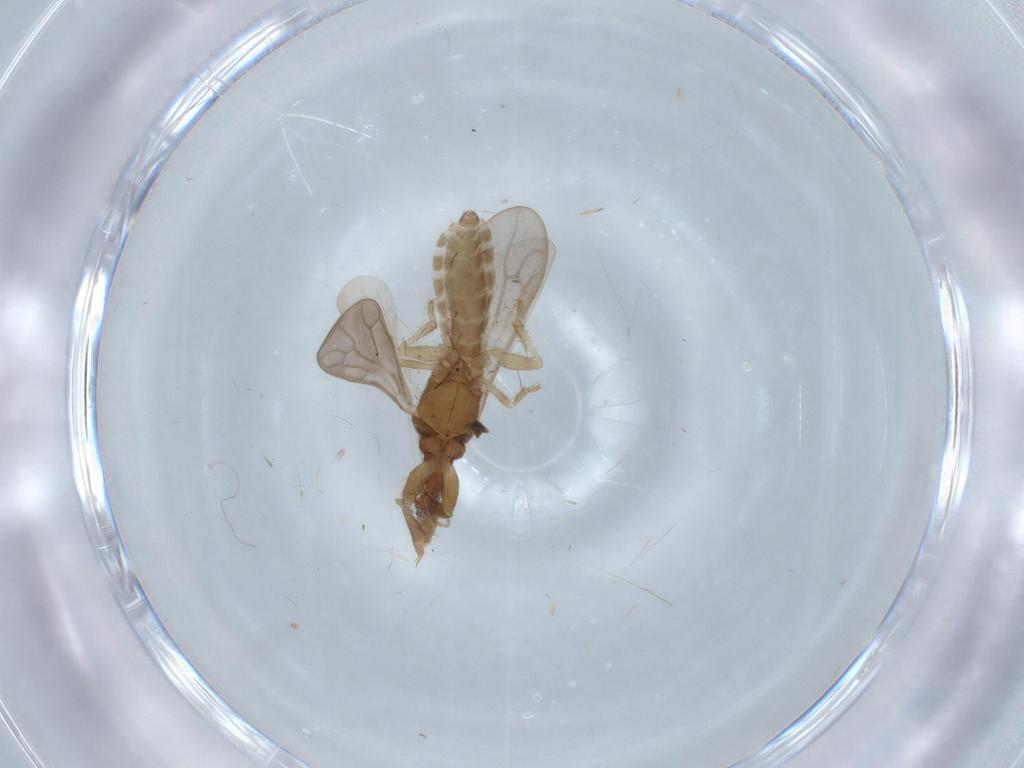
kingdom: Animalia
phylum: Arthropoda
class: Insecta
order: Hemiptera
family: Enicocephalidae
